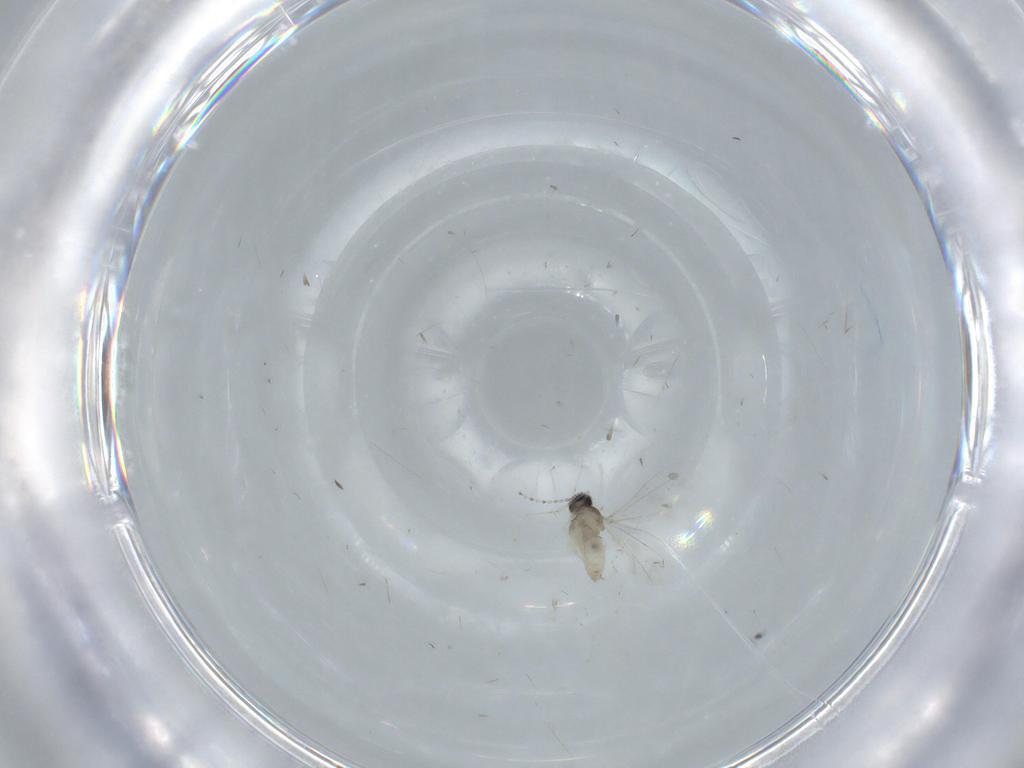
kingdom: Animalia
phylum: Arthropoda
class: Insecta
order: Diptera
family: Cecidomyiidae
